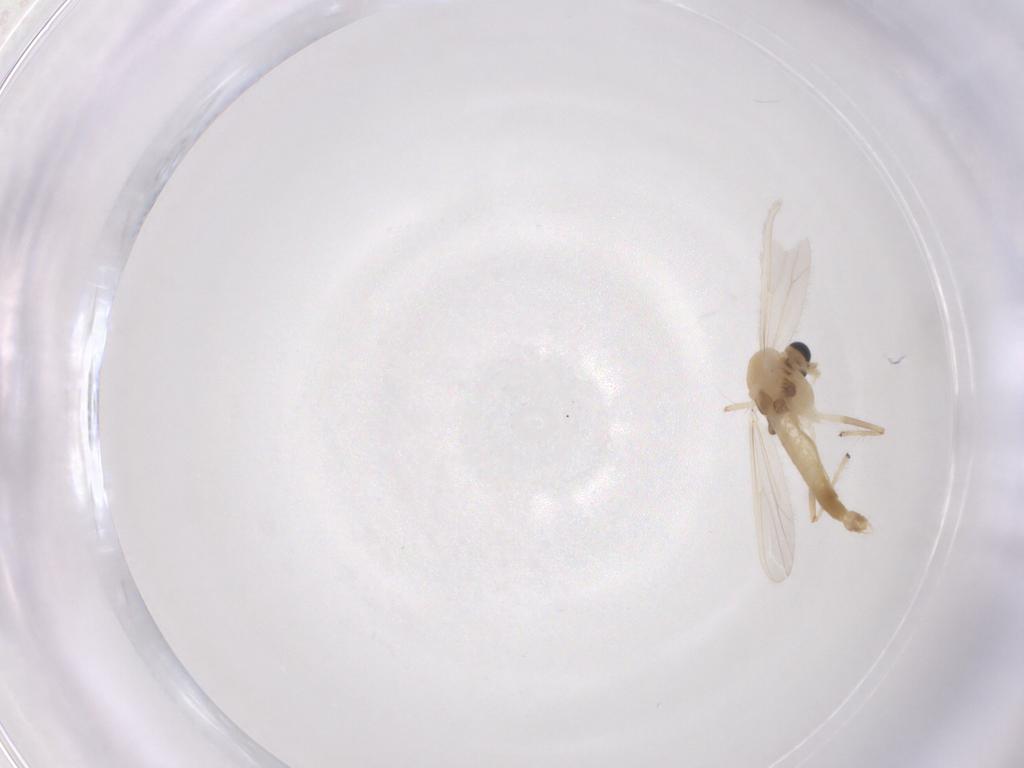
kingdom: Animalia
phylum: Arthropoda
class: Insecta
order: Diptera
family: Chironomidae
